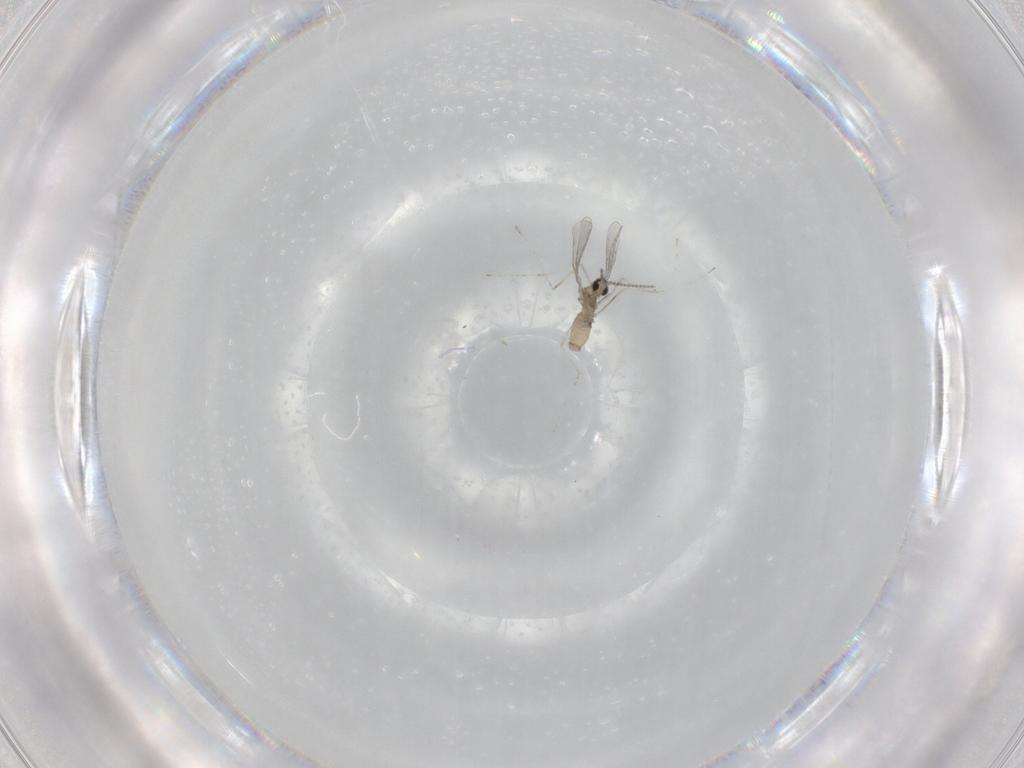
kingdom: Animalia
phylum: Arthropoda
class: Insecta
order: Diptera
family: Cecidomyiidae
